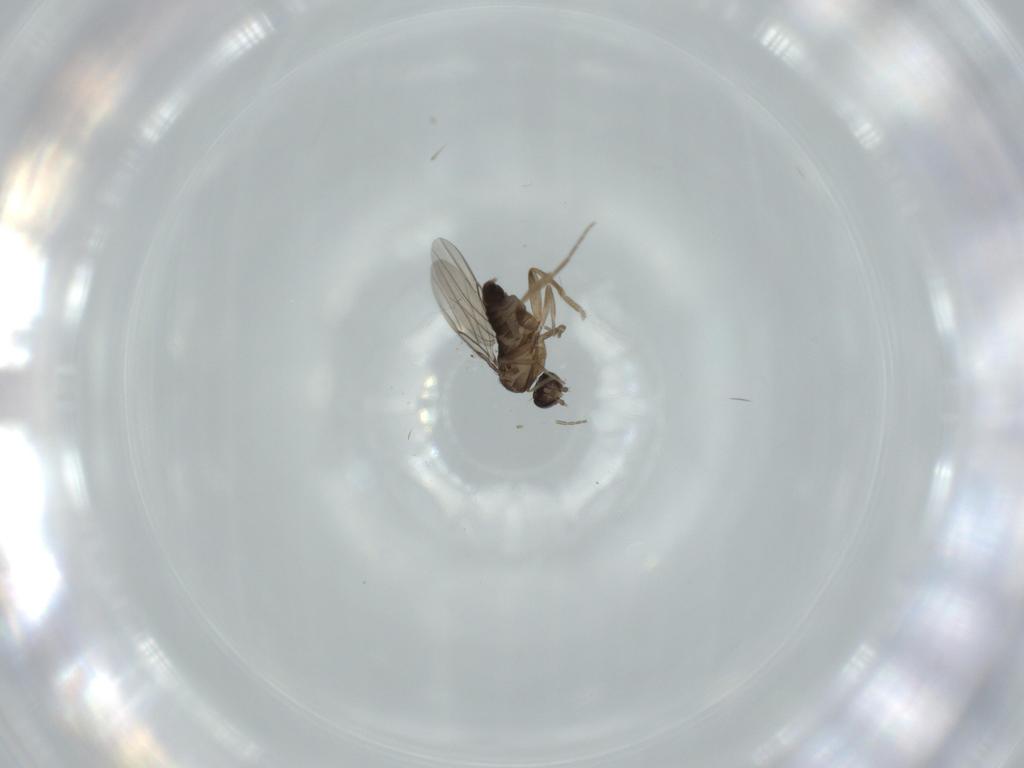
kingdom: Animalia
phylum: Arthropoda
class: Insecta
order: Diptera
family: Phoridae
